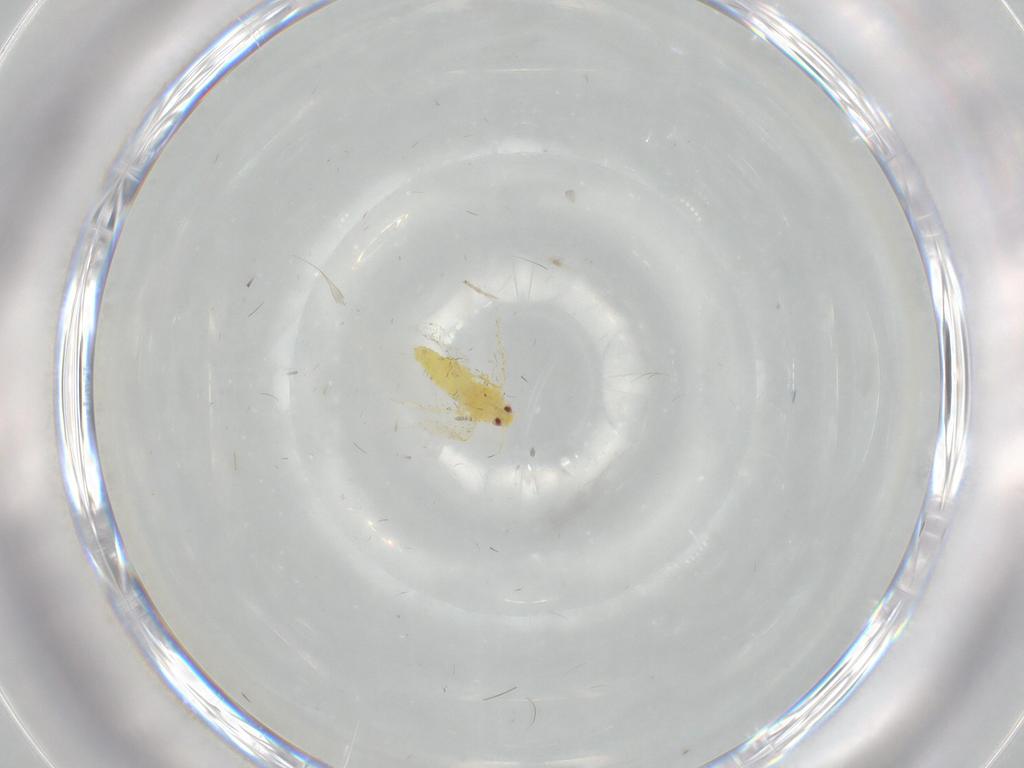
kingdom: Animalia
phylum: Arthropoda
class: Insecta
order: Hemiptera
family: Aleyrodidae
